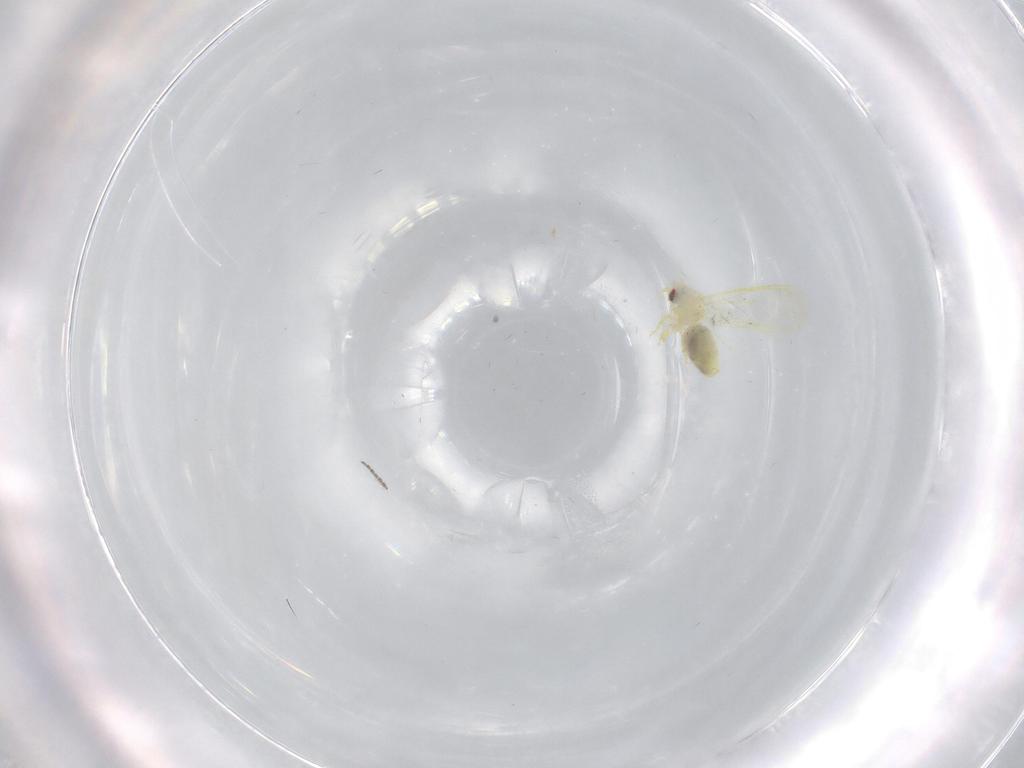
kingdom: Animalia
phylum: Arthropoda
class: Insecta
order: Hemiptera
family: Aleyrodidae
